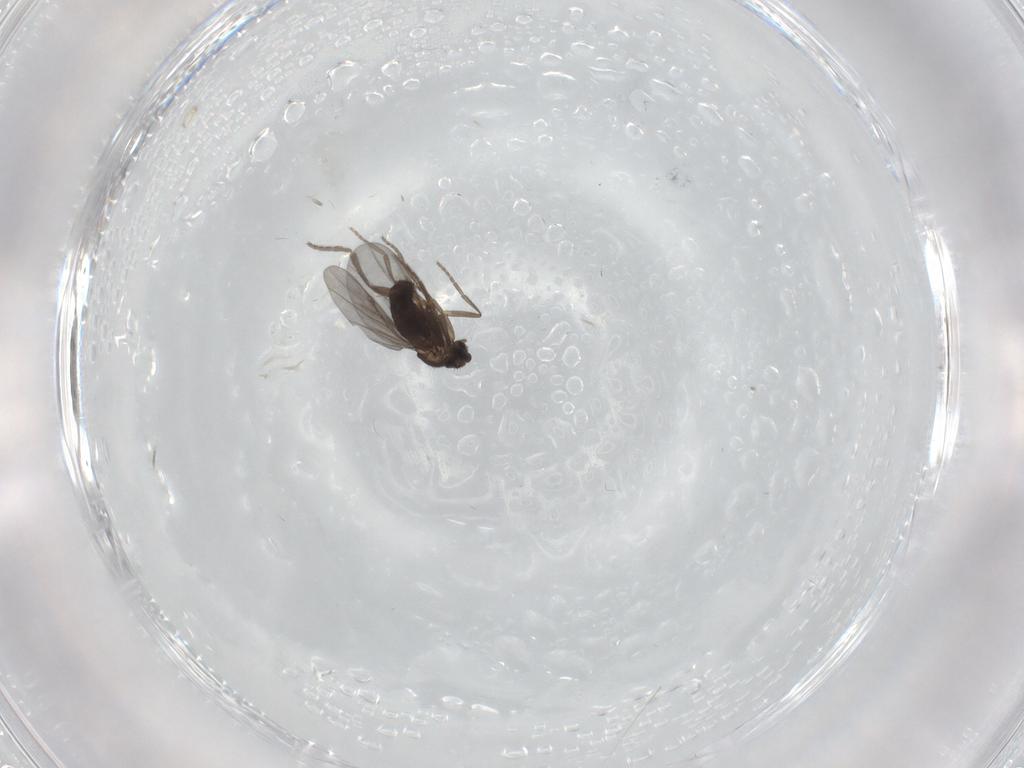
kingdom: Animalia
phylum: Arthropoda
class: Insecta
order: Diptera
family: Phoridae
